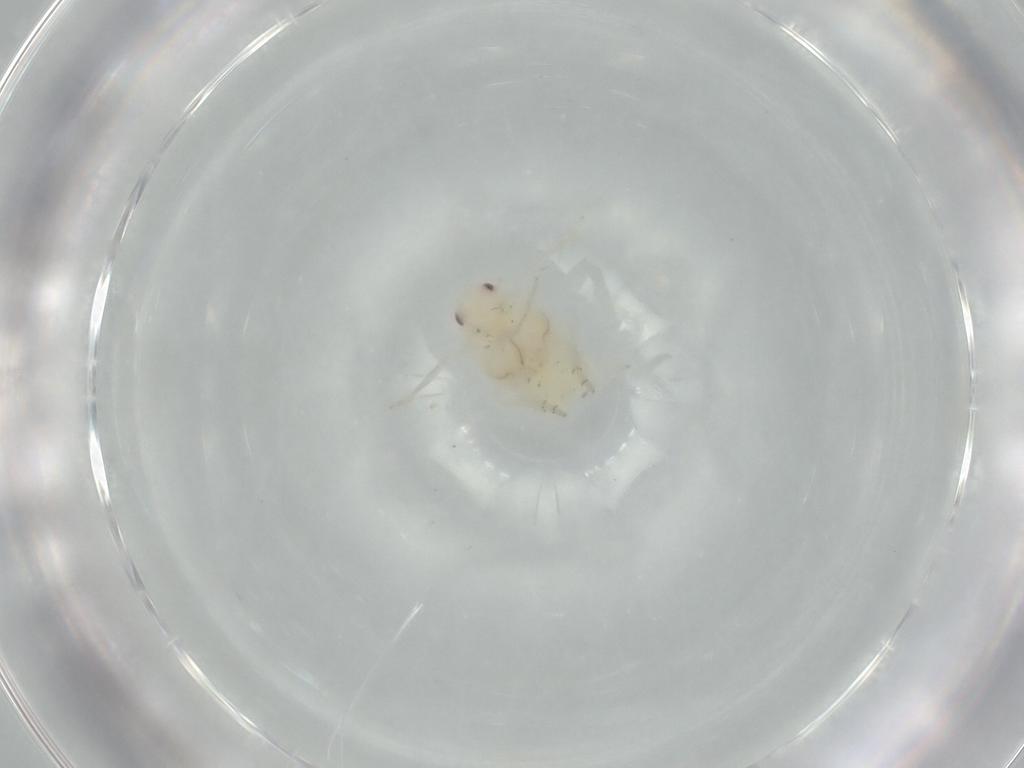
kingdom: Animalia
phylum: Arthropoda
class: Insecta
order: Hemiptera
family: Flatidae
